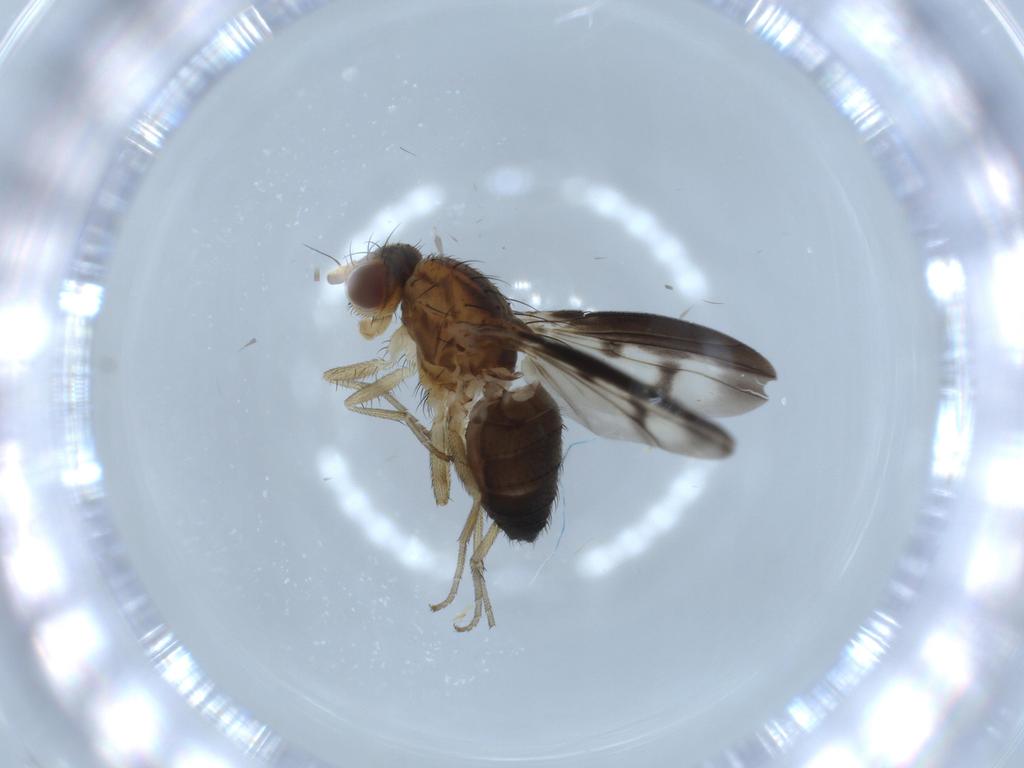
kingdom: Animalia
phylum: Arthropoda
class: Insecta
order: Diptera
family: Heleomyzidae
